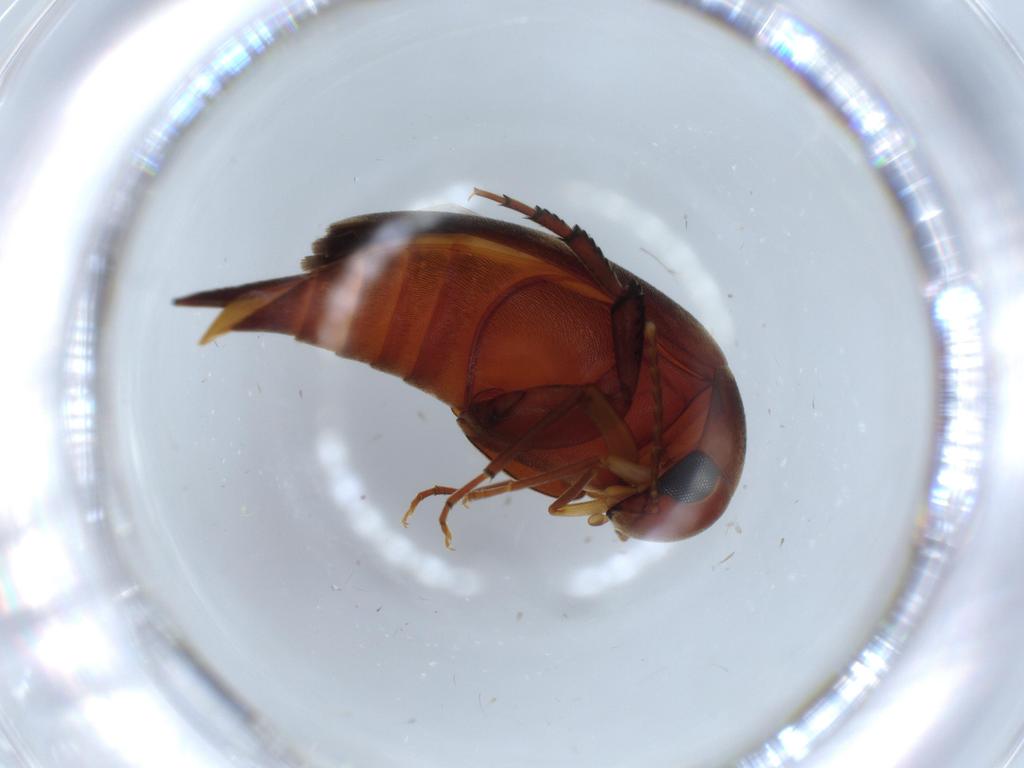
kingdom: Animalia
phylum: Arthropoda
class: Insecta
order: Coleoptera
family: Mordellidae
